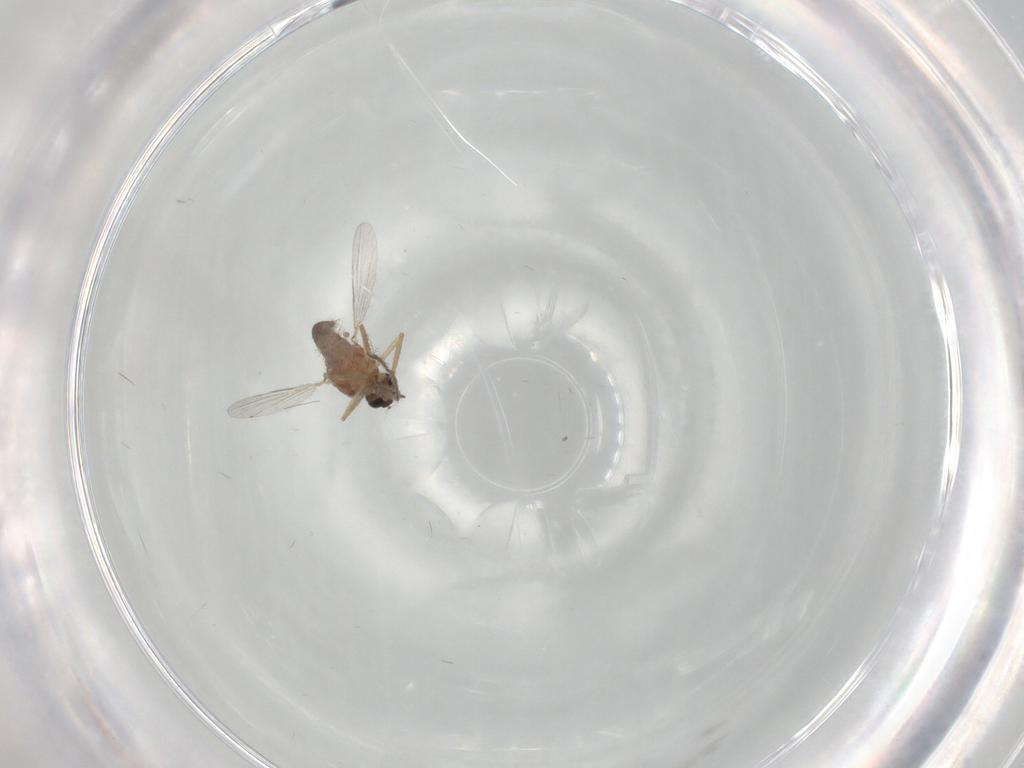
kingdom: Animalia
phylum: Arthropoda
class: Insecta
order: Diptera
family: Ceratopogonidae
